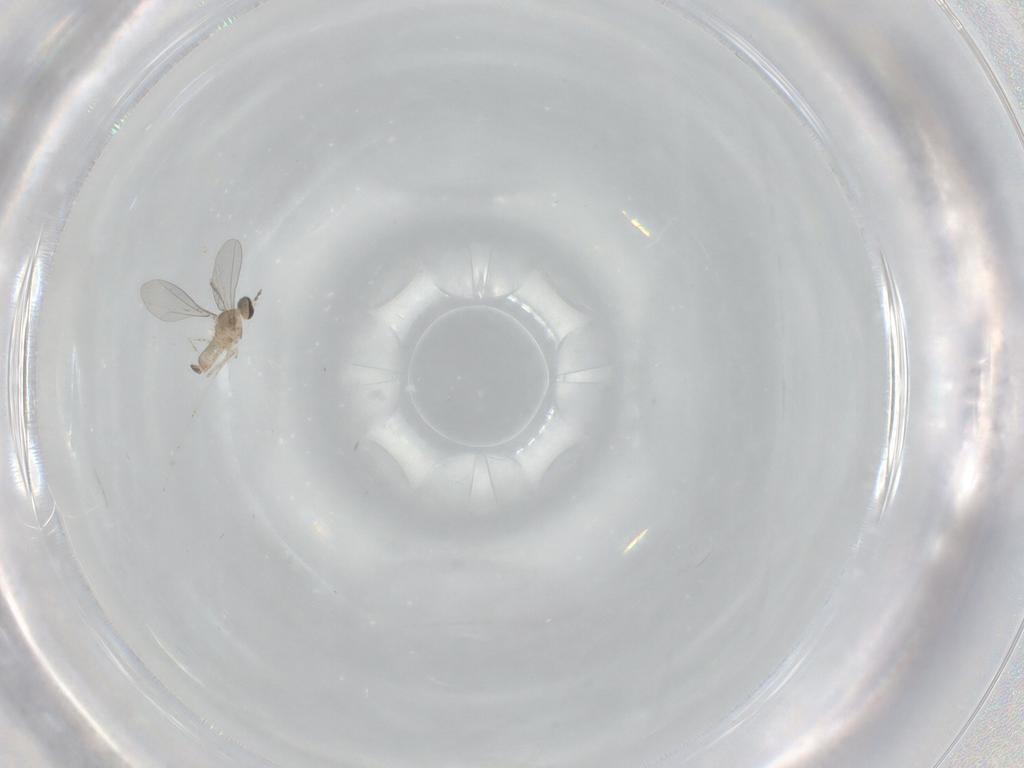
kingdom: Animalia
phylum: Arthropoda
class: Insecta
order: Diptera
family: Cecidomyiidae
